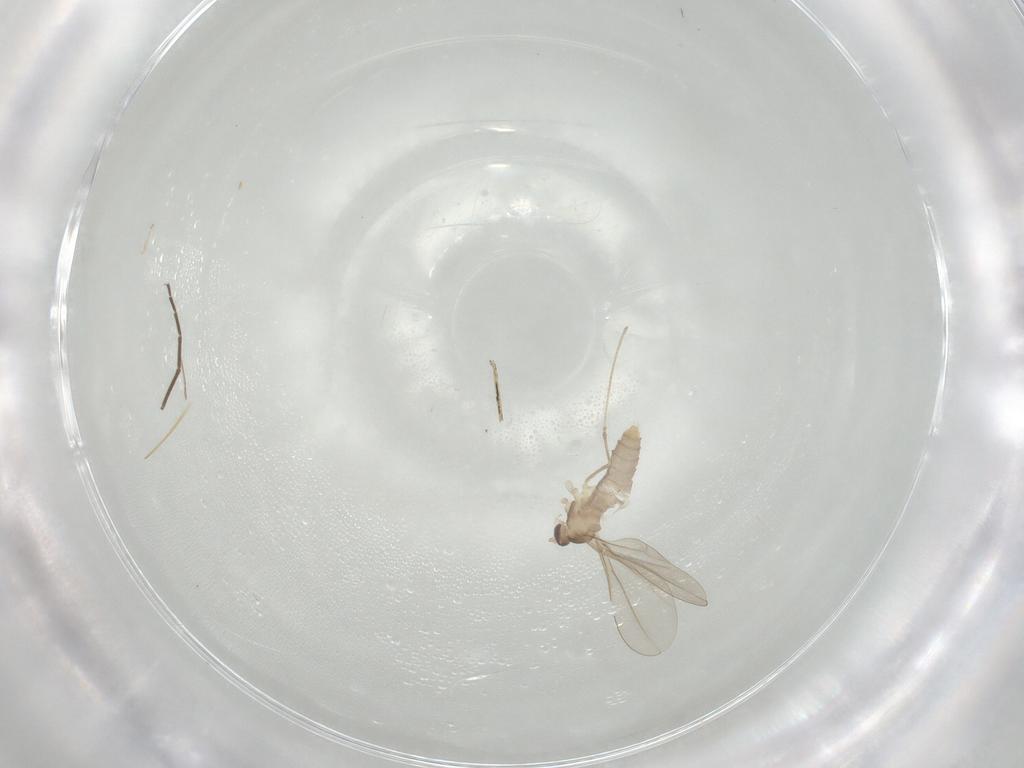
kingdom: Animalia
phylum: Arthropoda
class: Insecta
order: Diptera
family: Cecidomyiidae
